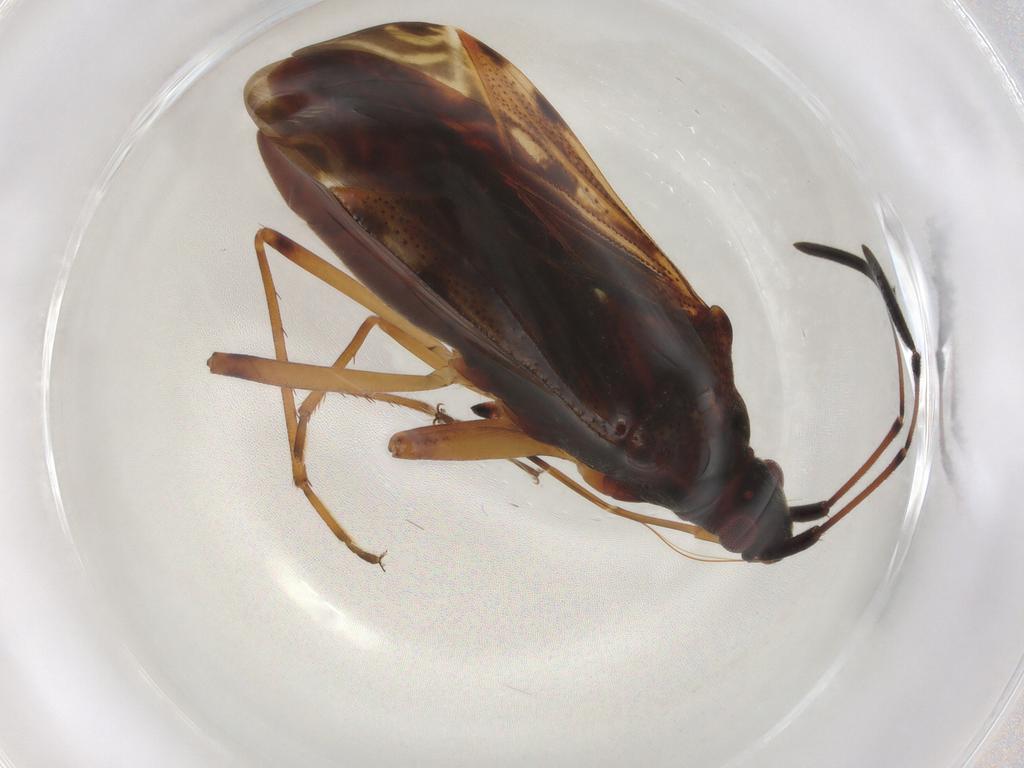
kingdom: Animalia
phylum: Arthropoda
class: Insecta
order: Hemiptera
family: Rhyparochromidae
